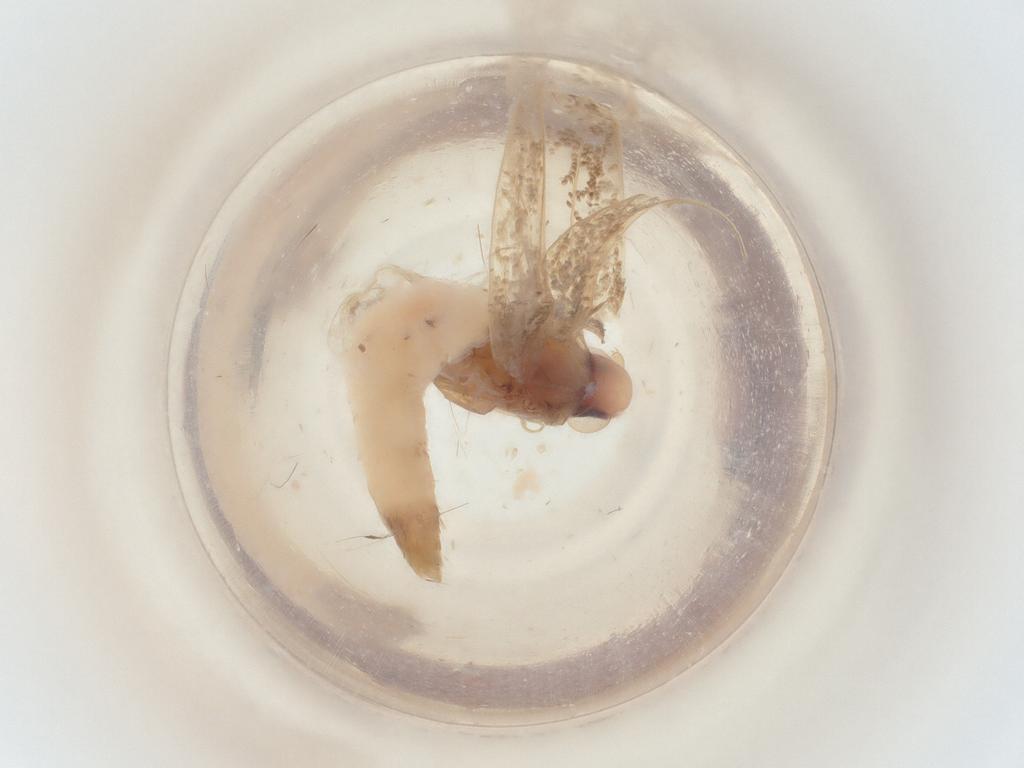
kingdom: Animalia
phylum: Arthropoda
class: Insecta
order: Lepidoptera
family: Gracillariidae
